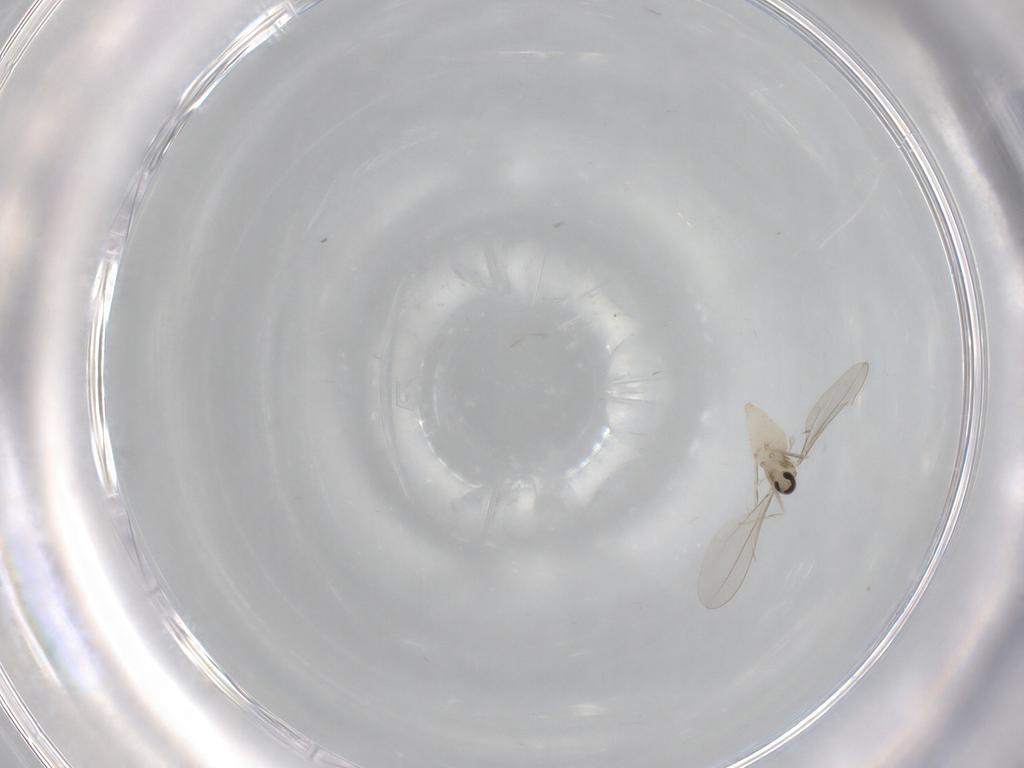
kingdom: Animalia
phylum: Arthropoda
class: Insecta
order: Diptera
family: Cecidomyiidae
